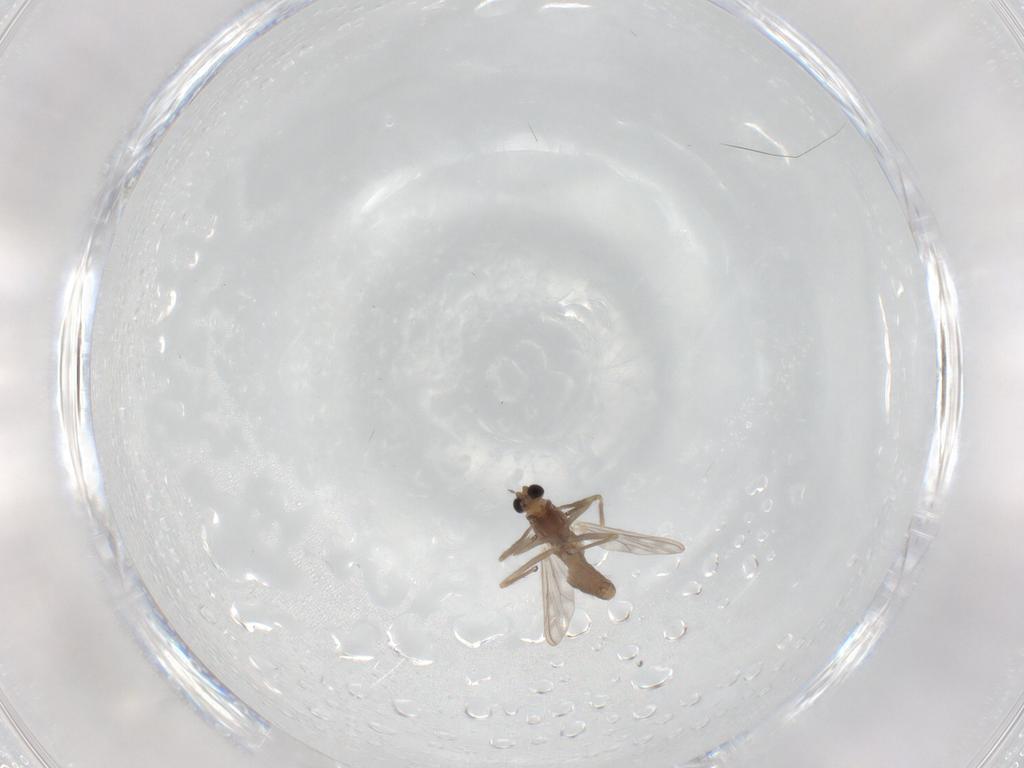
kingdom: Animalia
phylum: Arthropoda
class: Insecta
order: Diptera
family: Chironomidae
